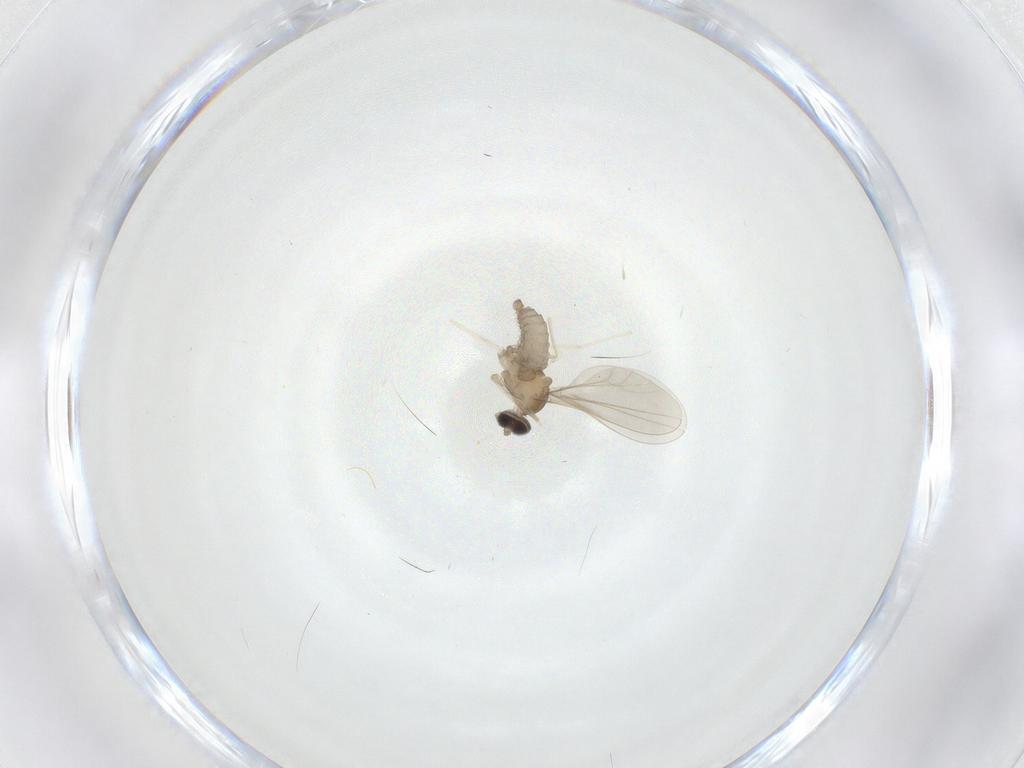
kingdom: Animalia
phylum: Arthropoda
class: Insecta
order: Diptera
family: Cecidomyiidae
